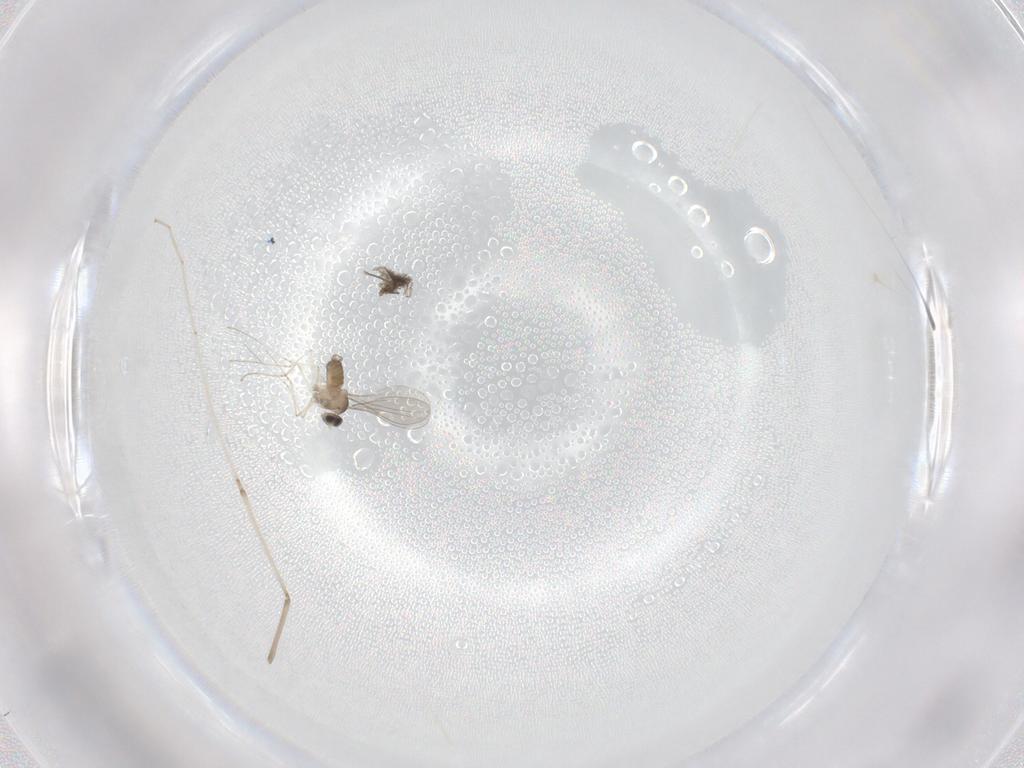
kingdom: Animalia
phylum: Arthropoda
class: Insecta
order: Diptera
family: Cecidomyiidae
